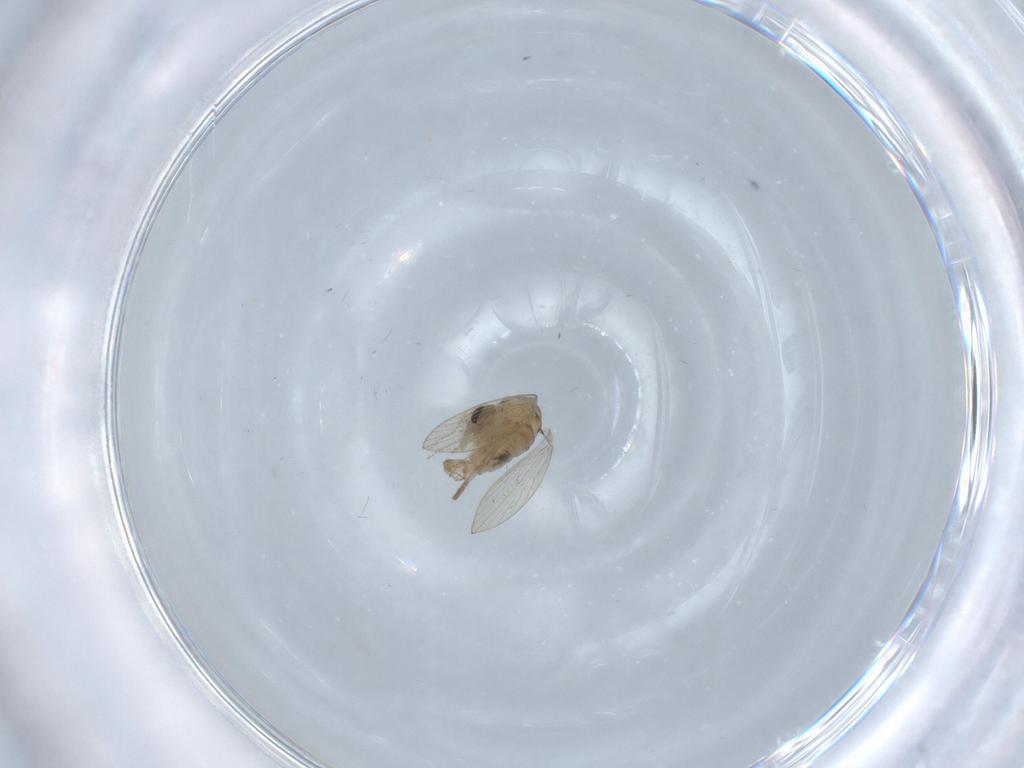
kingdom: Animalia
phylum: Arthropoda
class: Insecta
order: Diptera
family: Psychodidae
